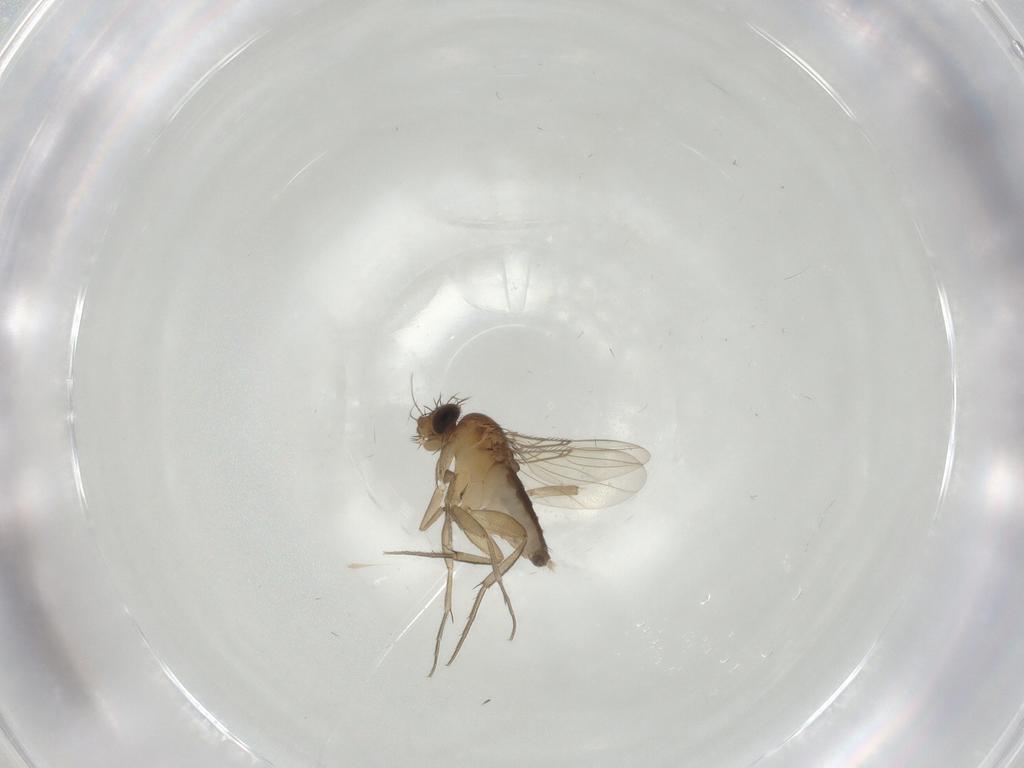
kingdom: Animalia
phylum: Arthropoda
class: Insecta
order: Diptera
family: Phoridae
